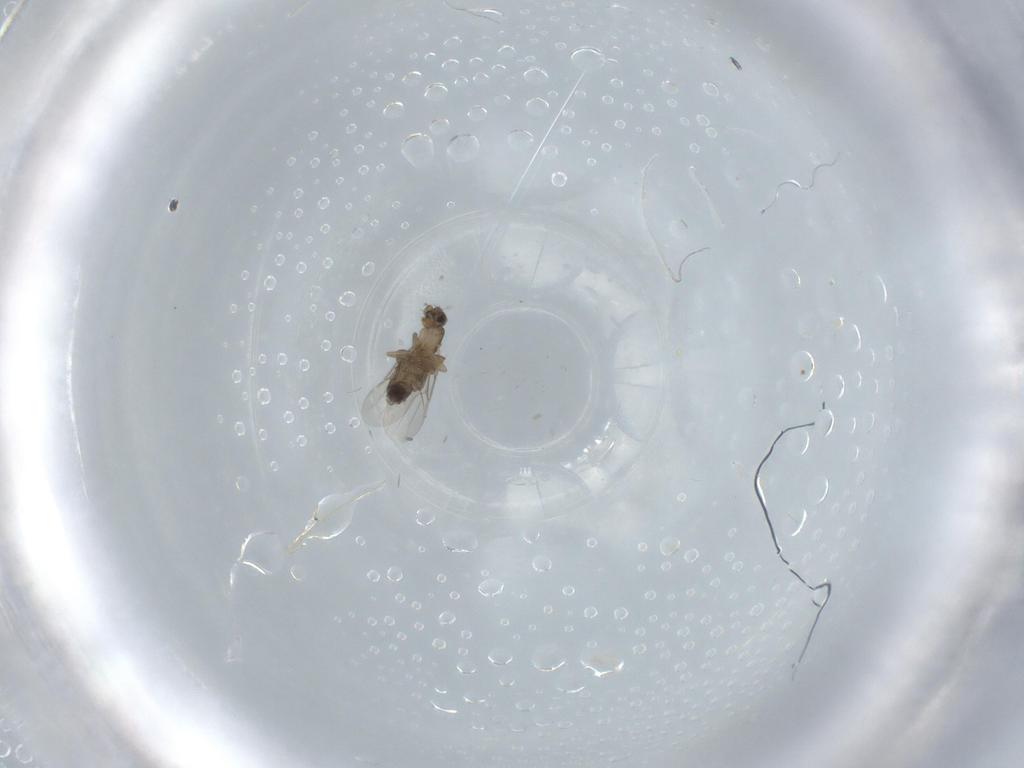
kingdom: Animalia
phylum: Arthropoda
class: Insecta
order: Diptera
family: Phoridae
